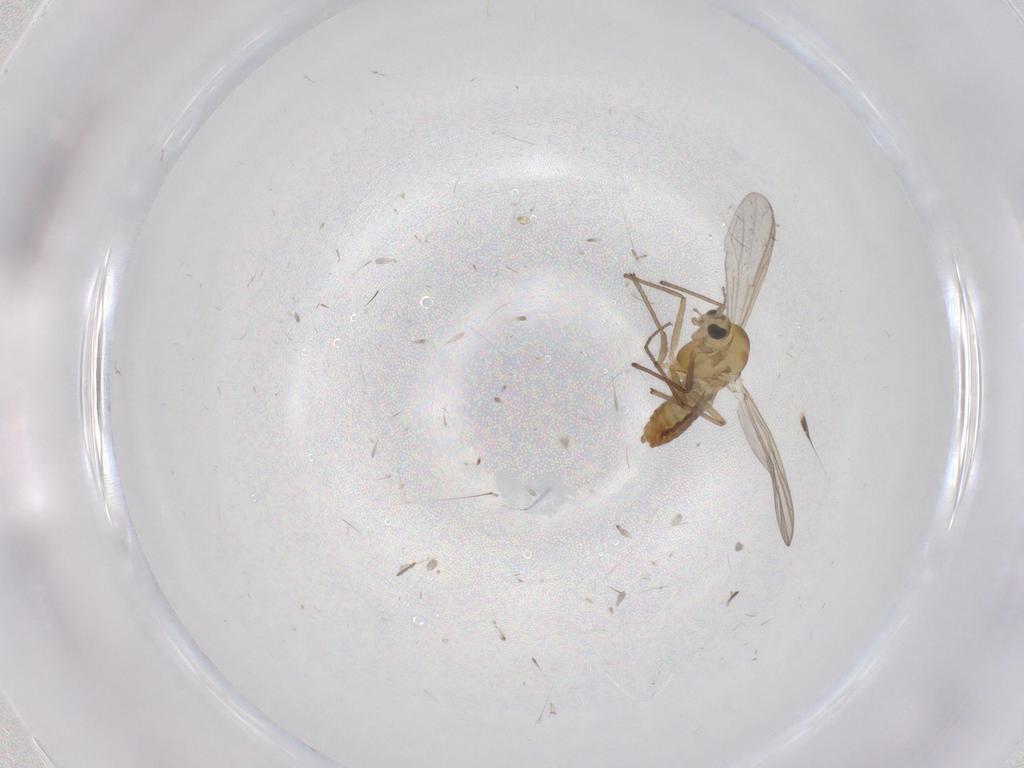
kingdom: Animalia
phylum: Arthropoda
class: Insecta
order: Diptera
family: Chironomidae
